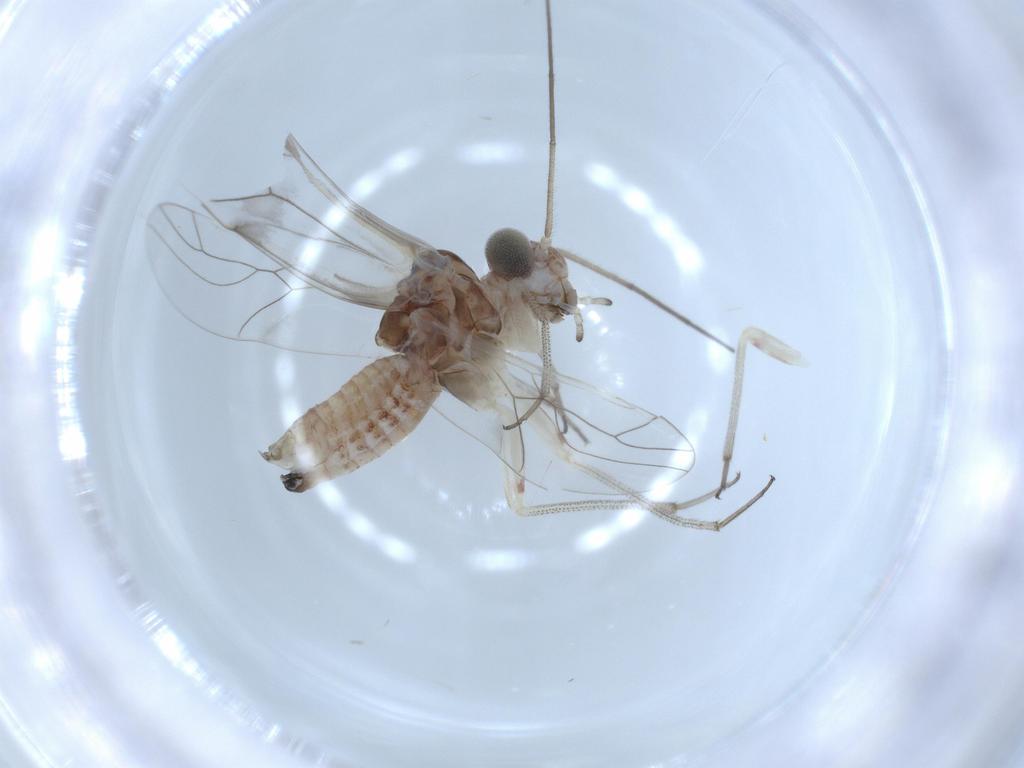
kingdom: Animalia
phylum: Arthropoda
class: Insecta
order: Psocodea
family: Caeciliusidae
